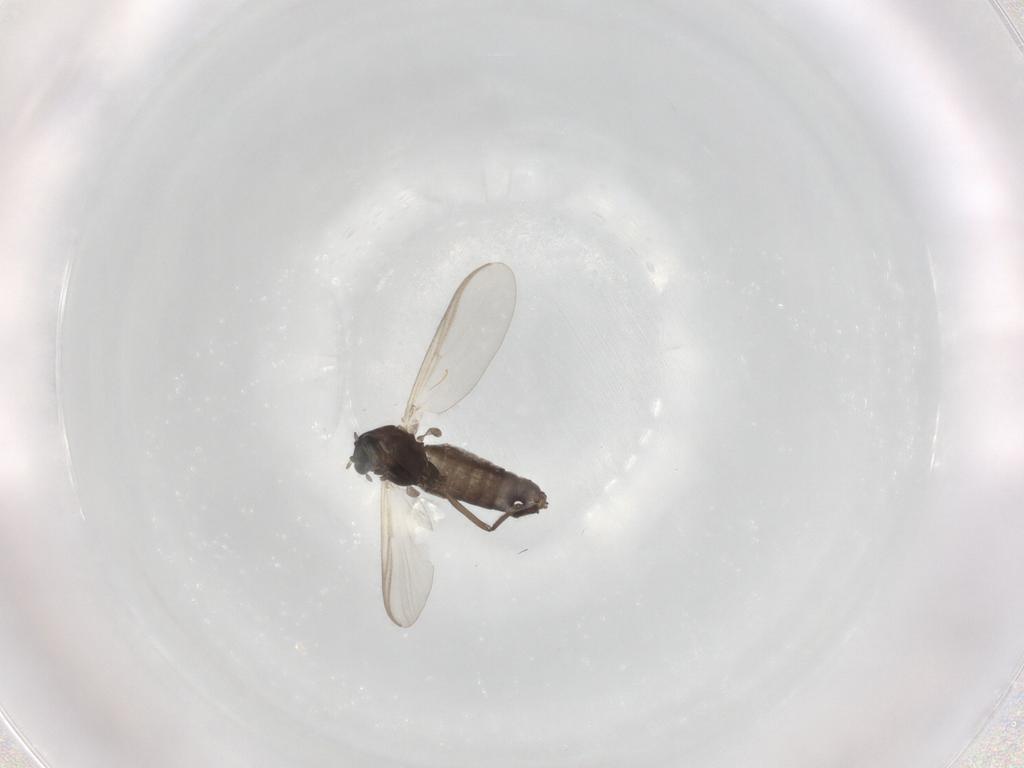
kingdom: Animalia
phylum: Arthropoda
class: Insecta
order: Diptera
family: Chironomidae
